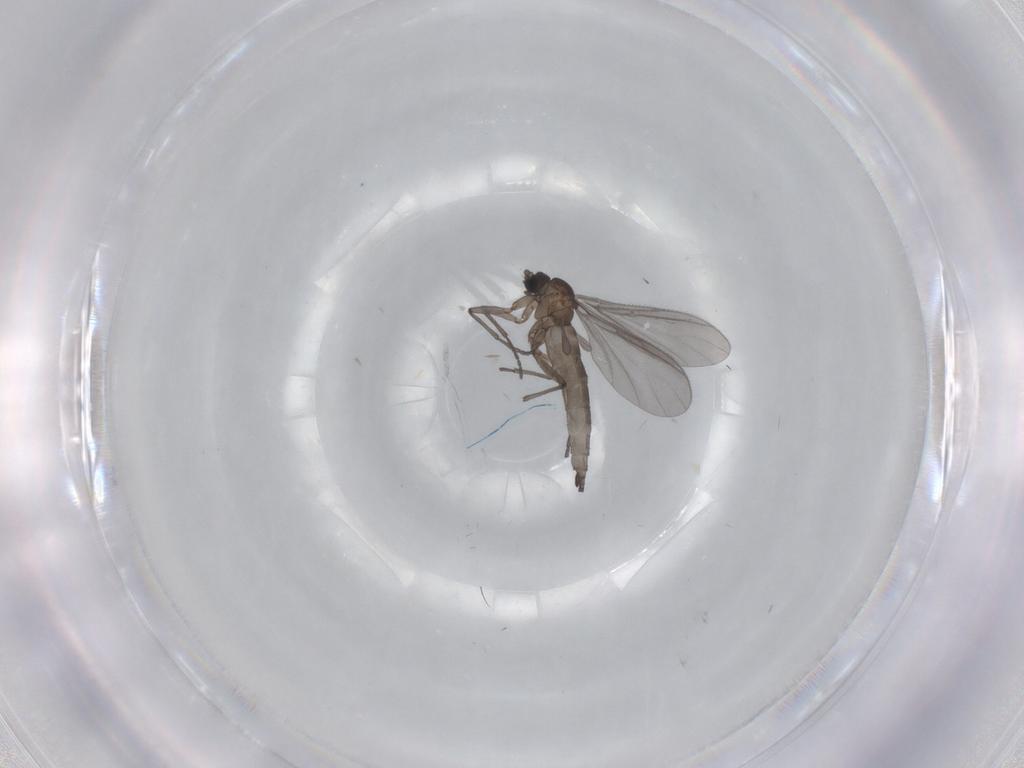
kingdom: Animalia
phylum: Arthropoda
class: Insecta
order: Diptera
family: Sciaridae
